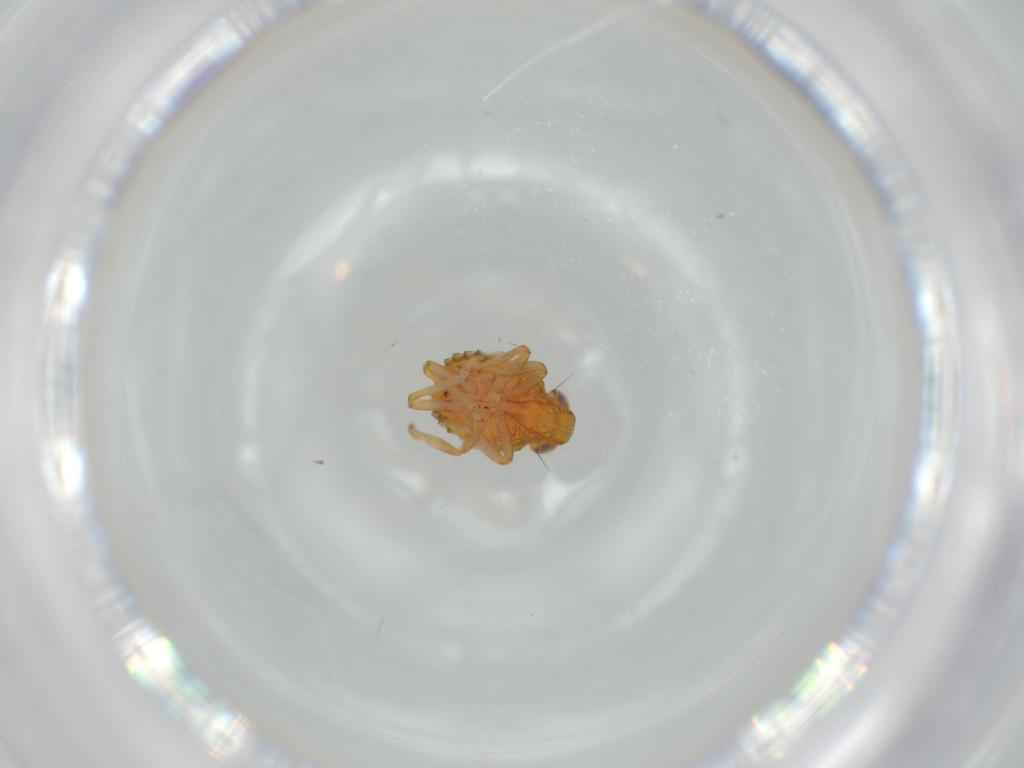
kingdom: Animalia
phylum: Arthropoda
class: Insecta
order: Hemiptera
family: Issidae
